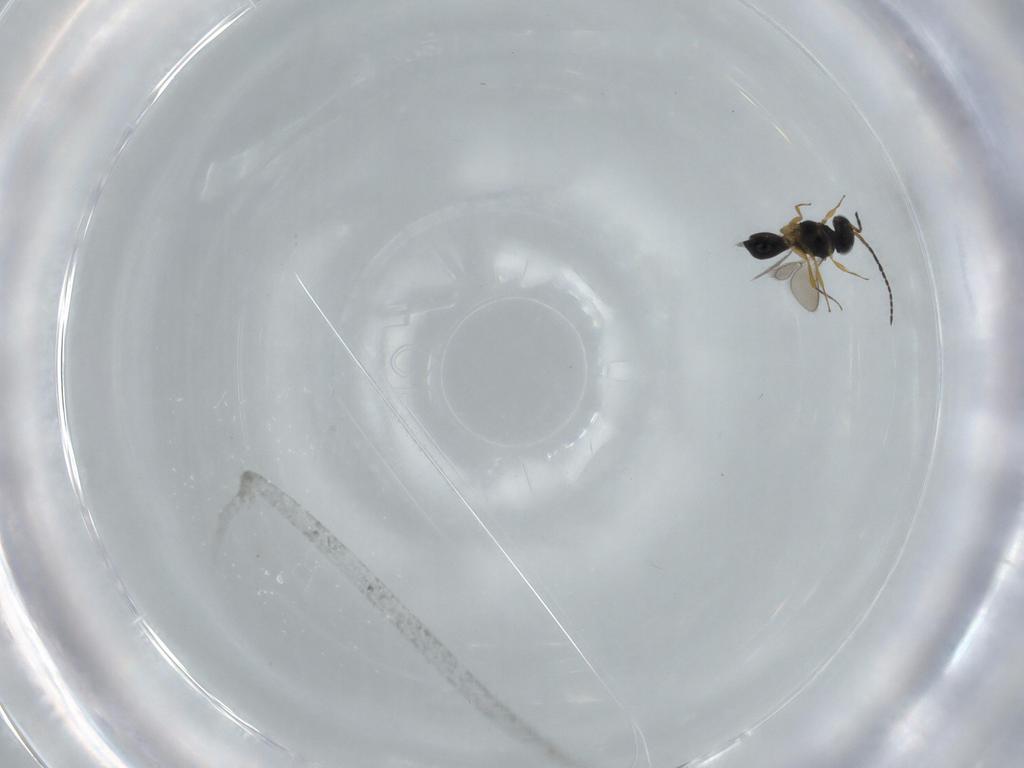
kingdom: Animalia
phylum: Arthropoda
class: Insecta
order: Hymenoptera
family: Scelionidae
